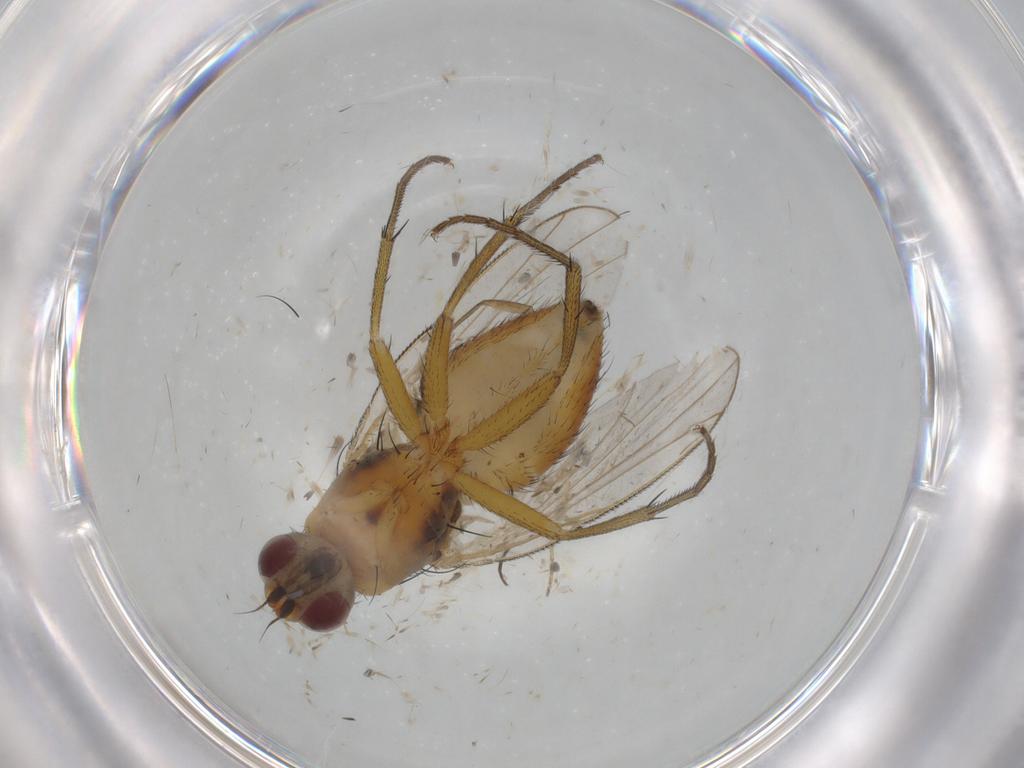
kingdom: Animalia
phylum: Arthropoda
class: Insecta
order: Diptera
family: Muscidae
